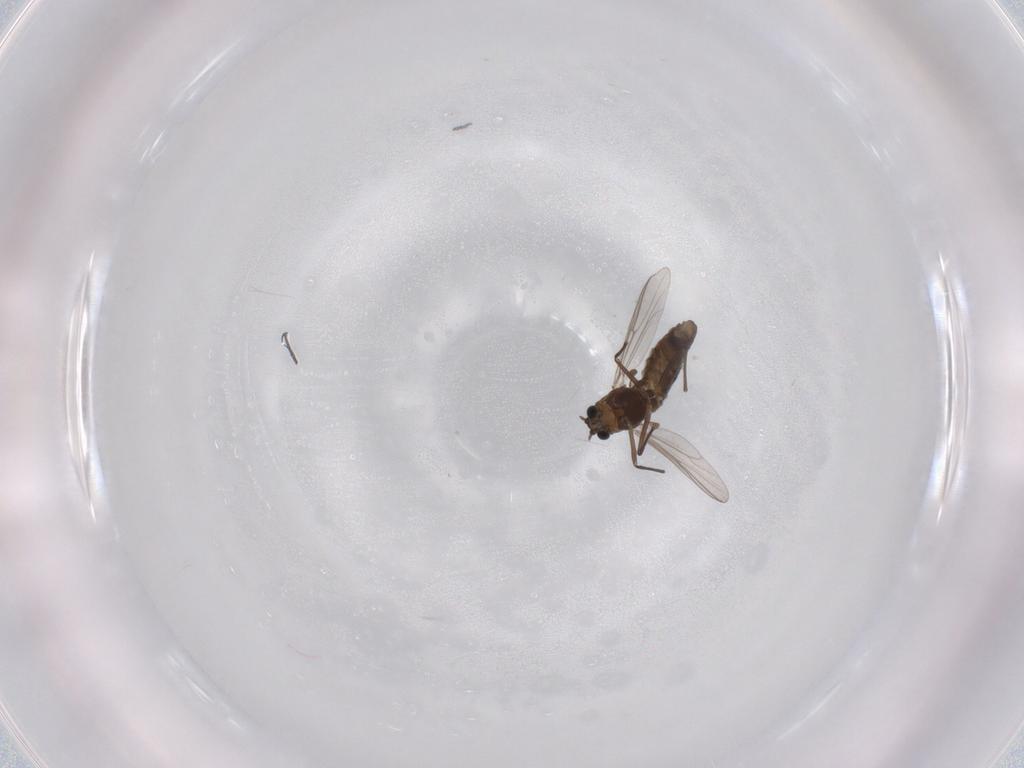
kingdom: Animalia
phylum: Arthropoda
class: Insecta
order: Diptera
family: Chironomidae
